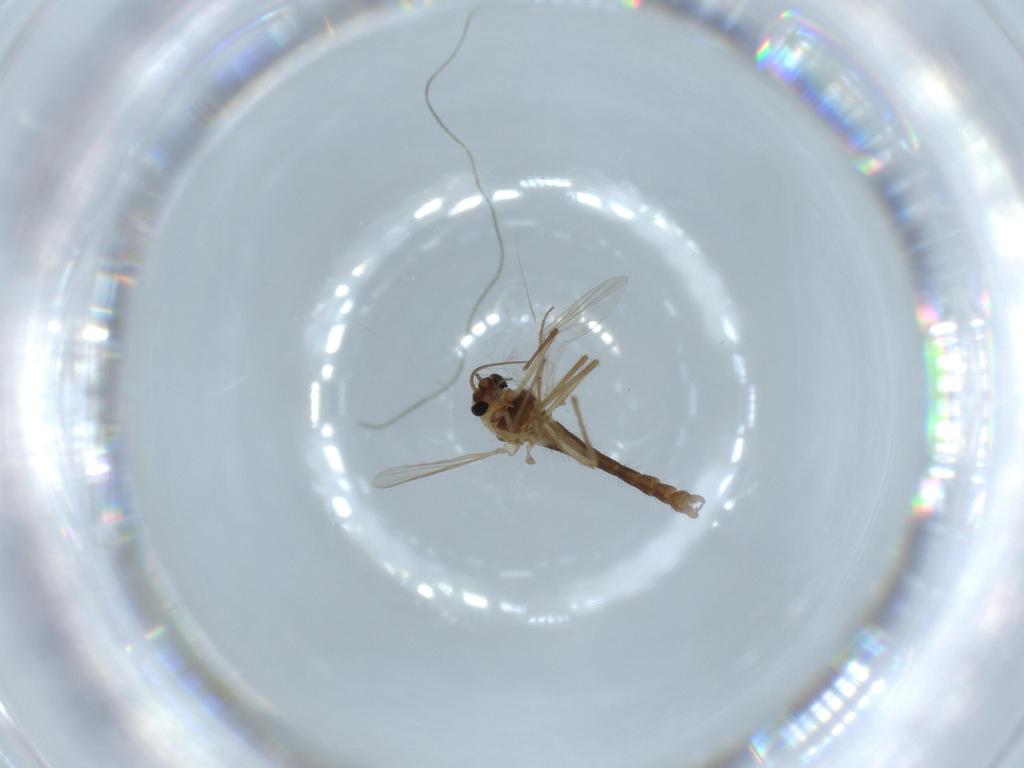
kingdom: Animalia
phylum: Arthropoda
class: Insecta
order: Diptera
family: Chironomidae
